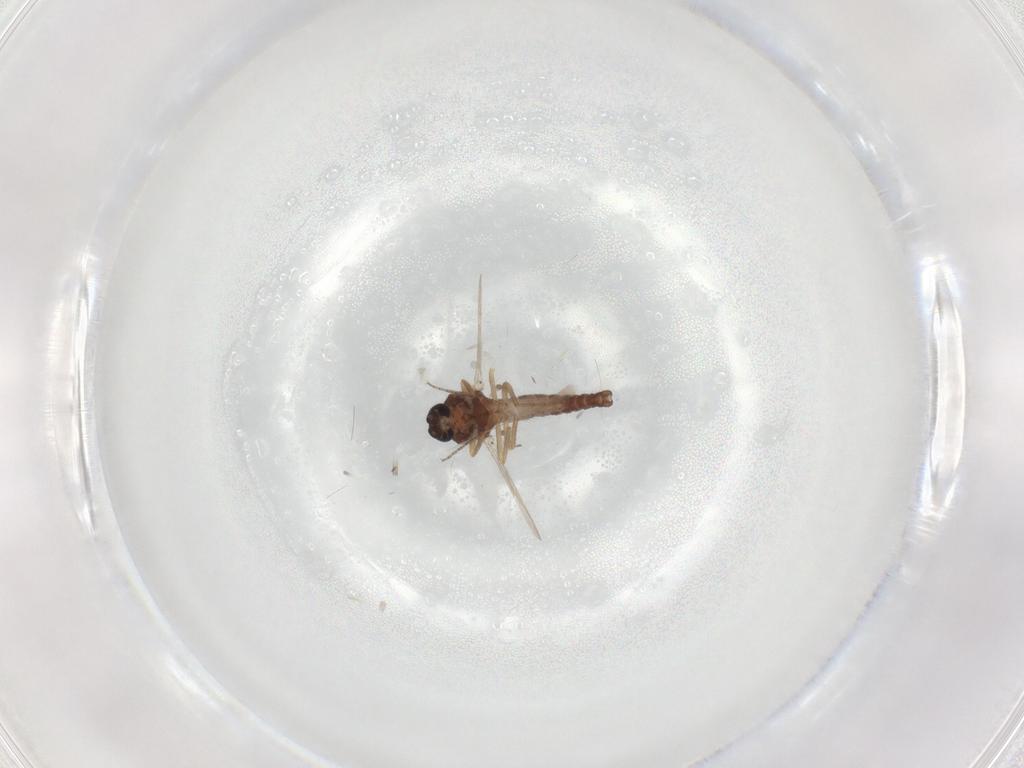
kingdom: Animalia
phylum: Arthropoda
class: Insecta
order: Diptera
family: Ceratopogonidae
